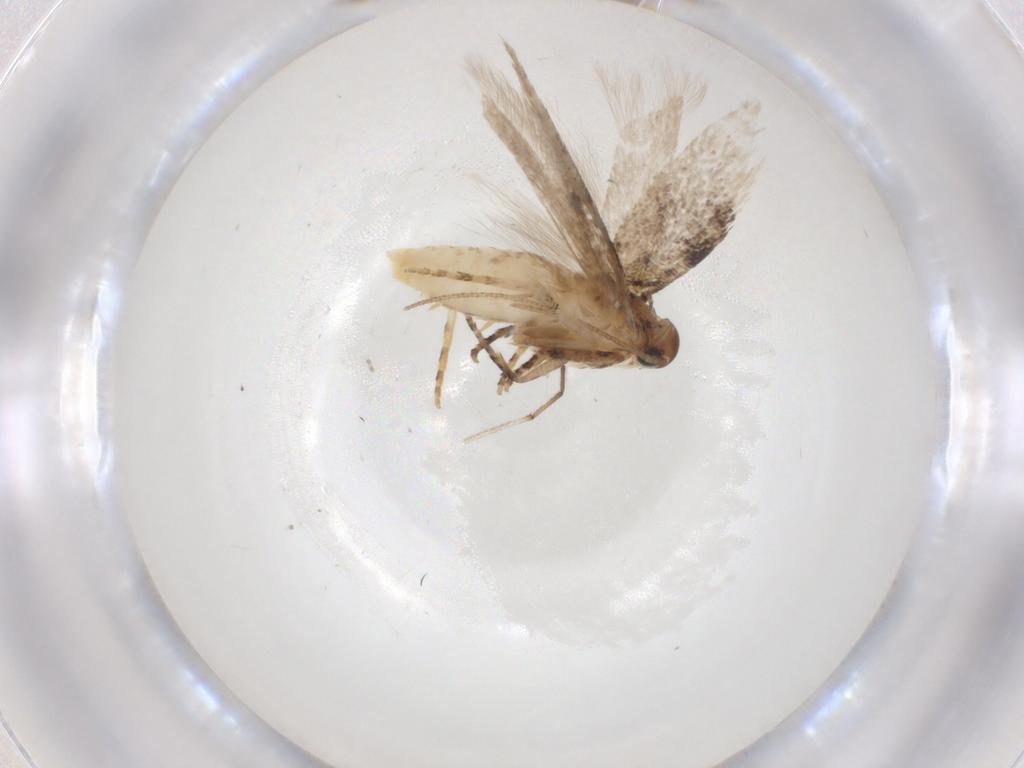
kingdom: Animalia
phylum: Arthropoda
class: Insecta
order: Lepidoptera
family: Gelechiidae
